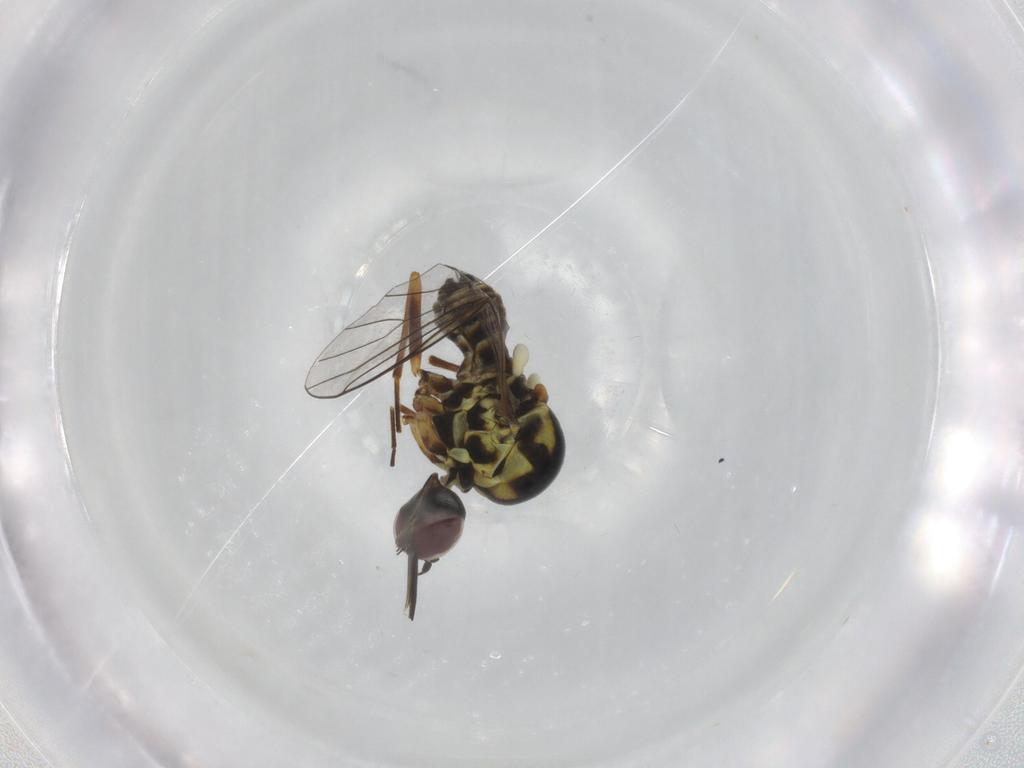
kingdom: Animalia
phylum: Arthropoda
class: Insecta
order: Diptera
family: Bombyliidae
